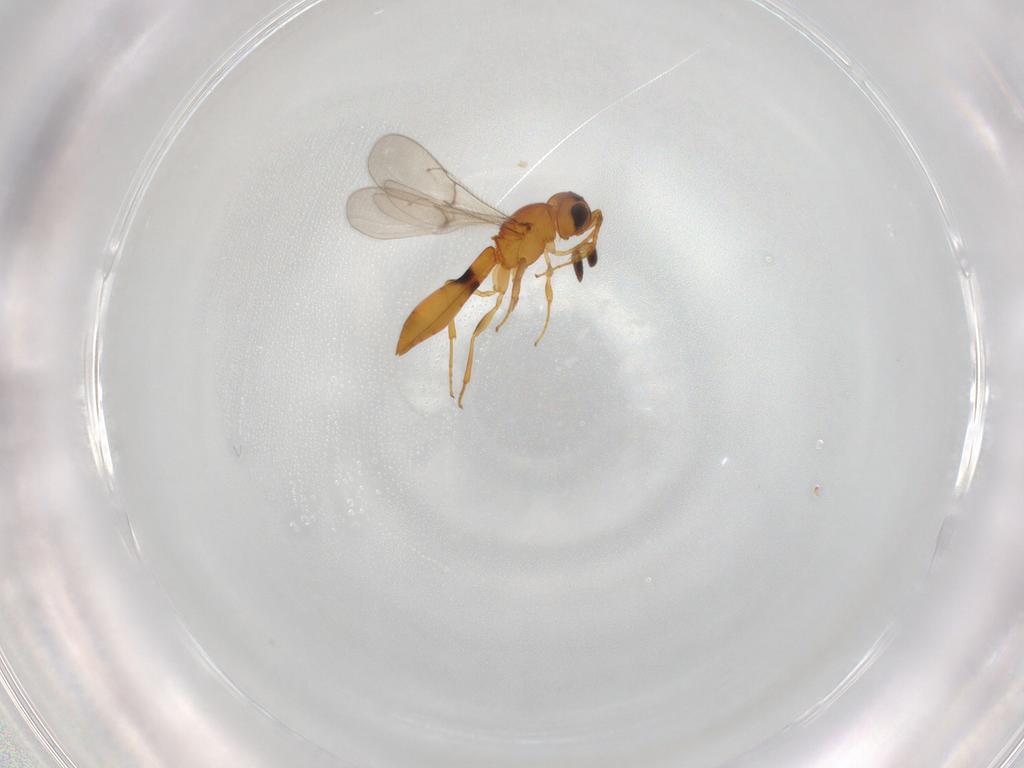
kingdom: Animalia
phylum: Arthropoda
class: Insecta
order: Hymenoptera
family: Scelionidae
